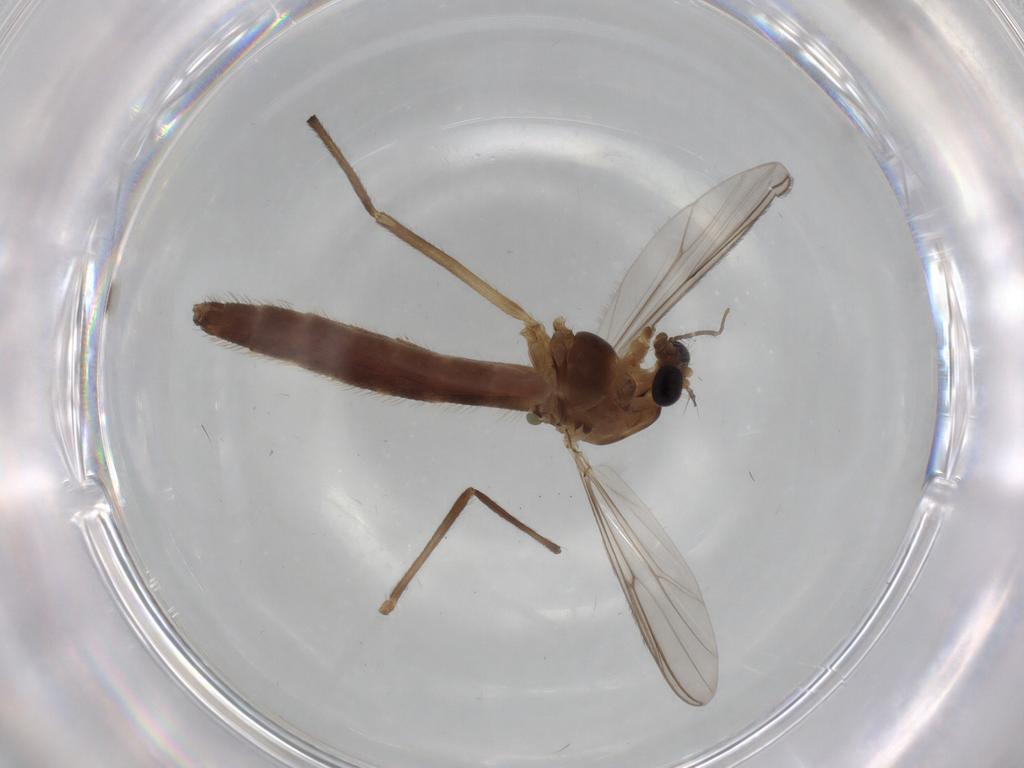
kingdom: Animalia
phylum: Arthropoda
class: Insecta
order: Diptera
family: Chironomidae
